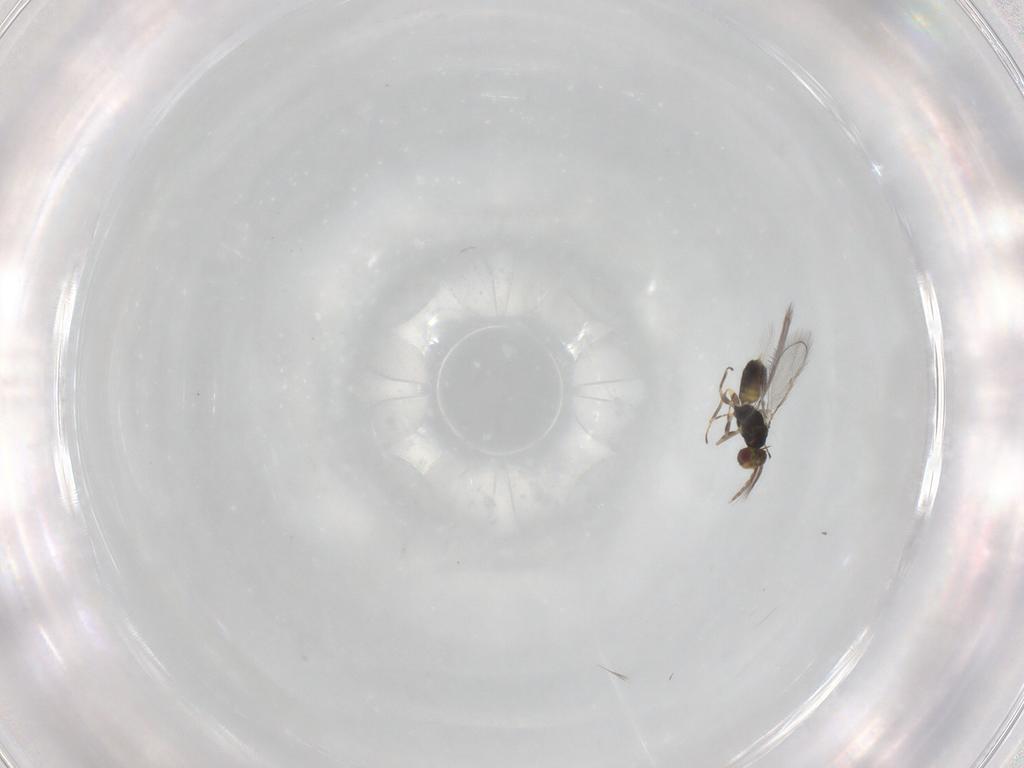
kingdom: Animalia
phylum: Arthropoda
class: Insecta
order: Hymenoptera
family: Eulophidae
